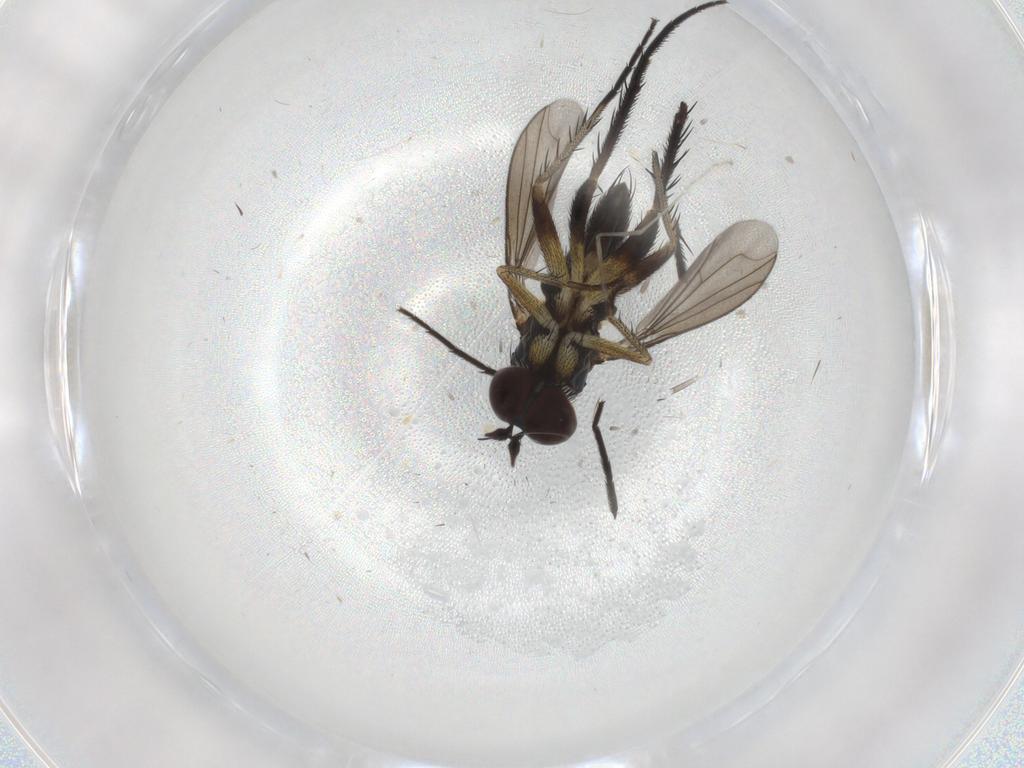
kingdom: Animalia
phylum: Arthropoda
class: Insecta
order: Diptera
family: Dolichopodidae
